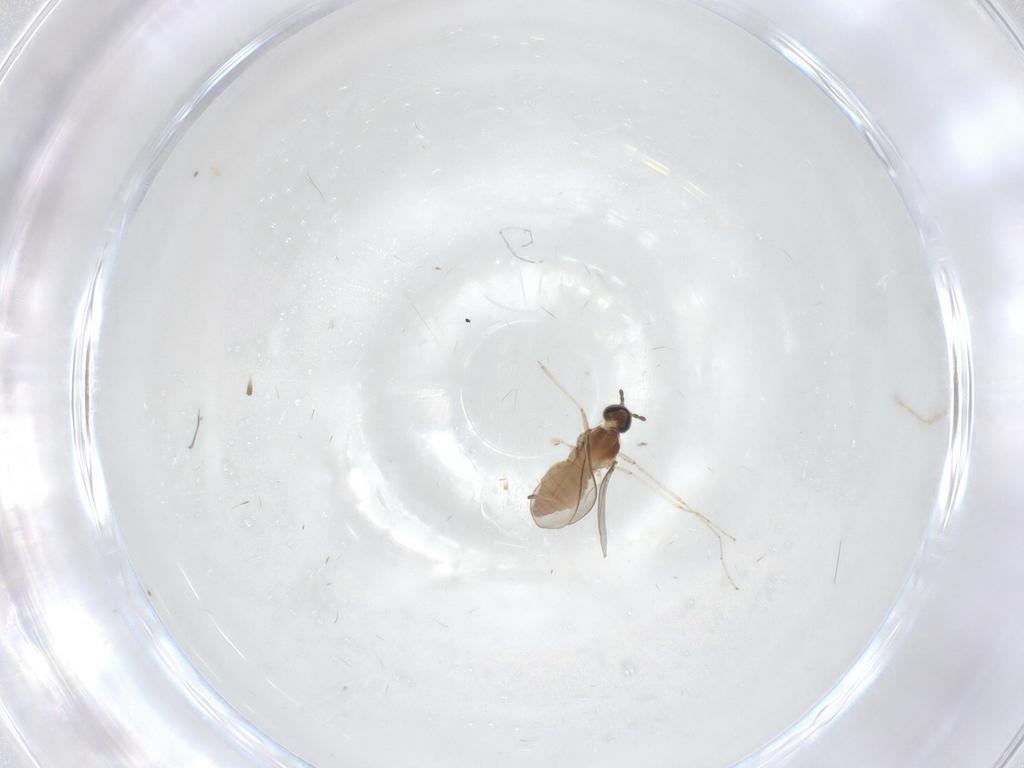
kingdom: Animalia
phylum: Arthropoda
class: Insecta
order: Diptera
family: Cecidomyiidae
